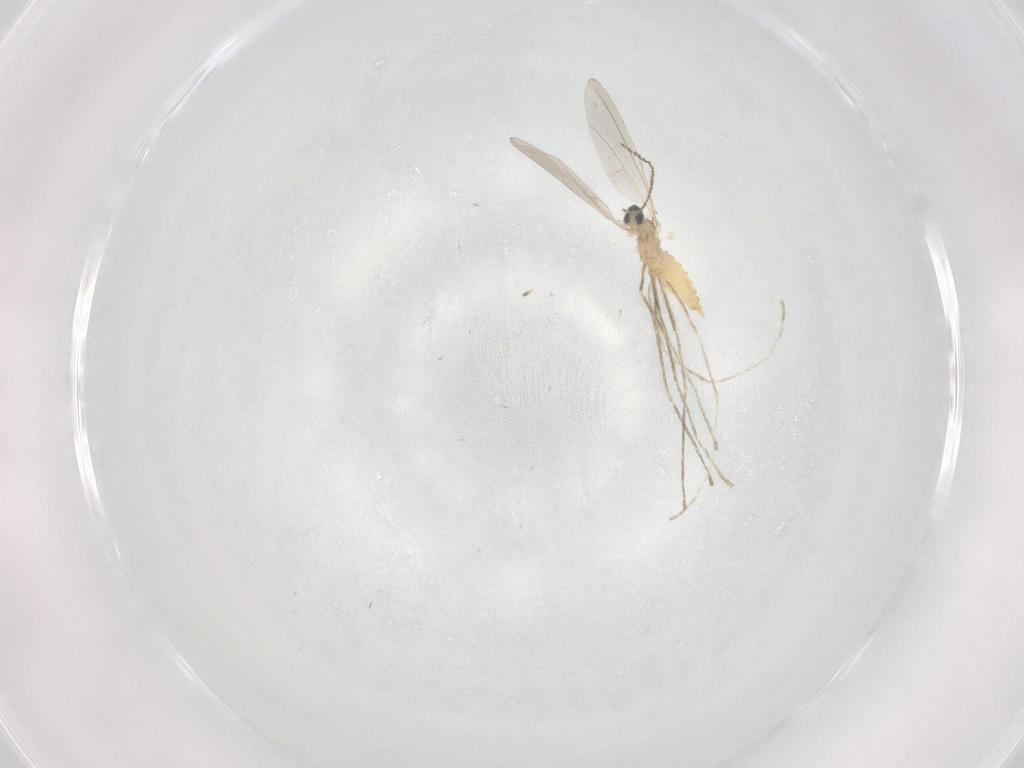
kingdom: Animalia
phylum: Arthropoda
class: Insecta
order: Diptera
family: Cecidomyiidae
